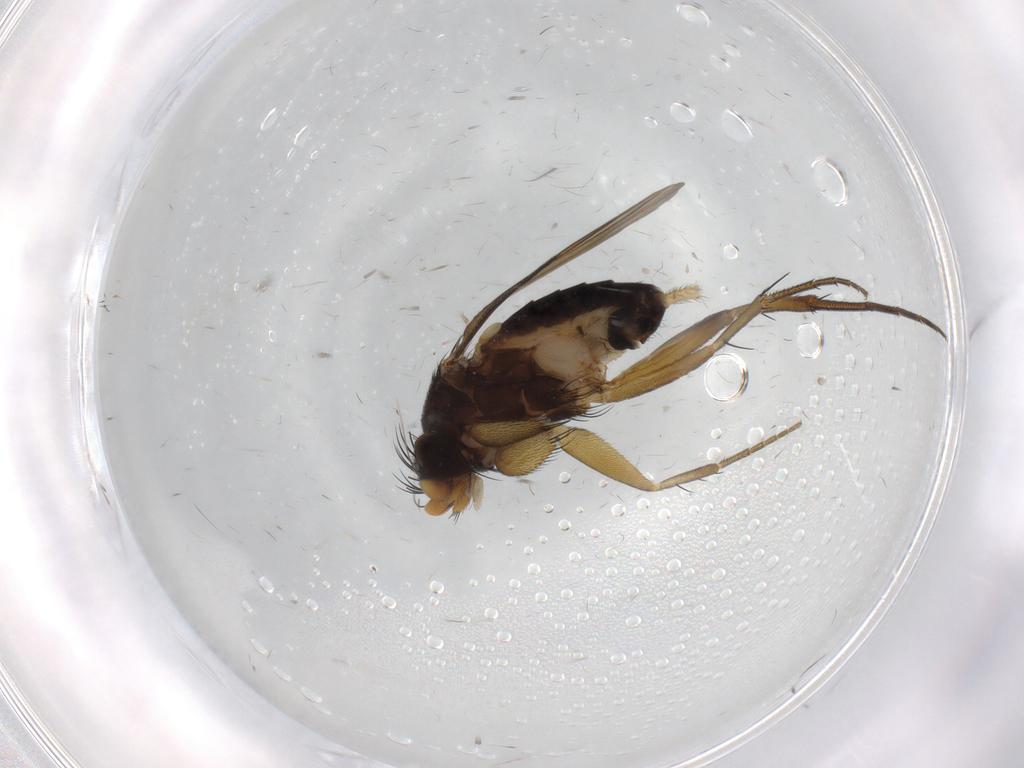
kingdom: Animalia
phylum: Arthropoda
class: Insecta
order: Diptera
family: Phoridae
